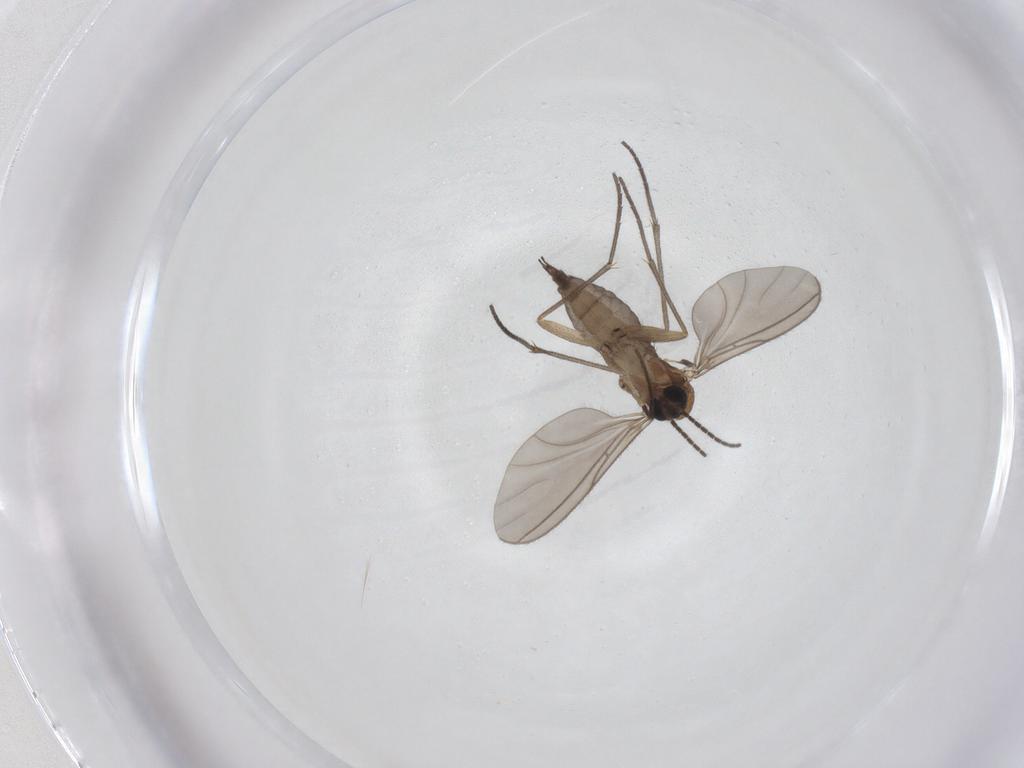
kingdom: Animalia
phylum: Arthropoda
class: Insecta
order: Diptera
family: Sciaridae
